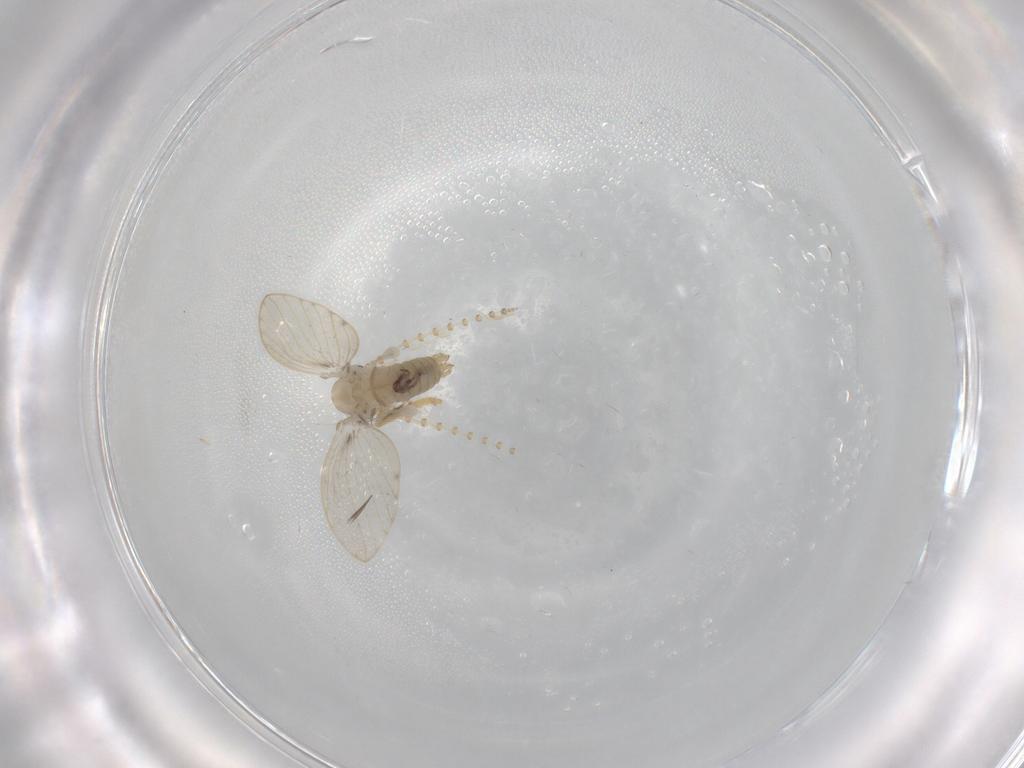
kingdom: Animalia
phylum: Arthropoda
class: Insecta
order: Diptera
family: Psychodidae
